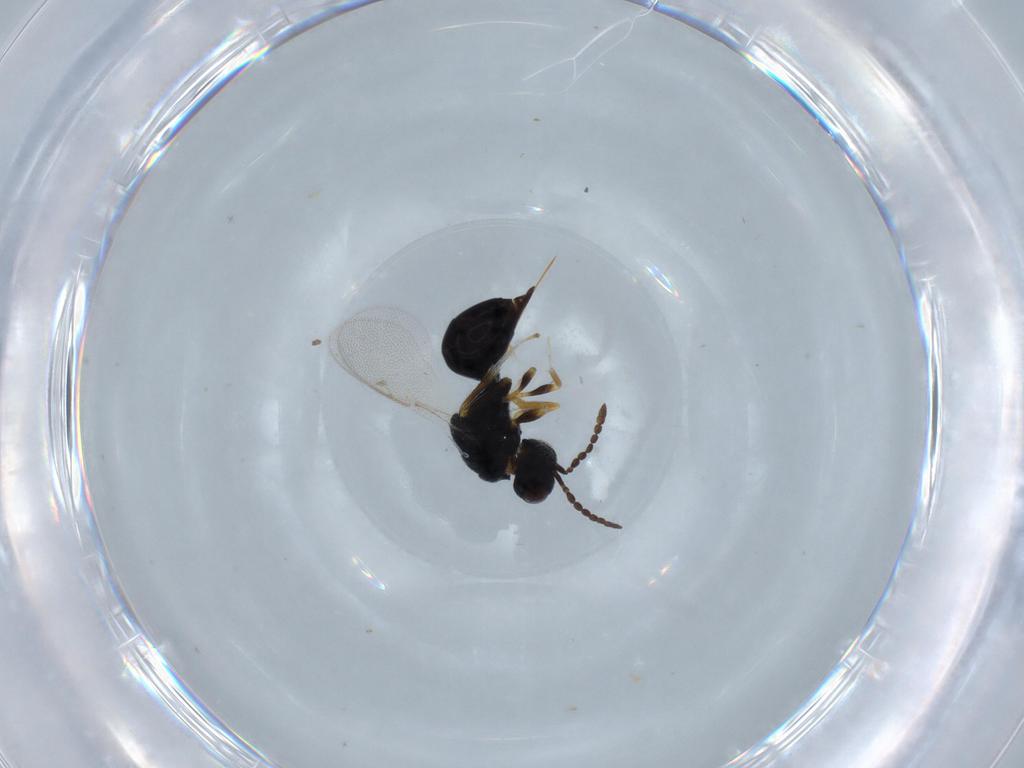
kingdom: Animalia
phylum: Arthropoda
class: Insecta
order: Hymenoptera
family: Eurytomidae
